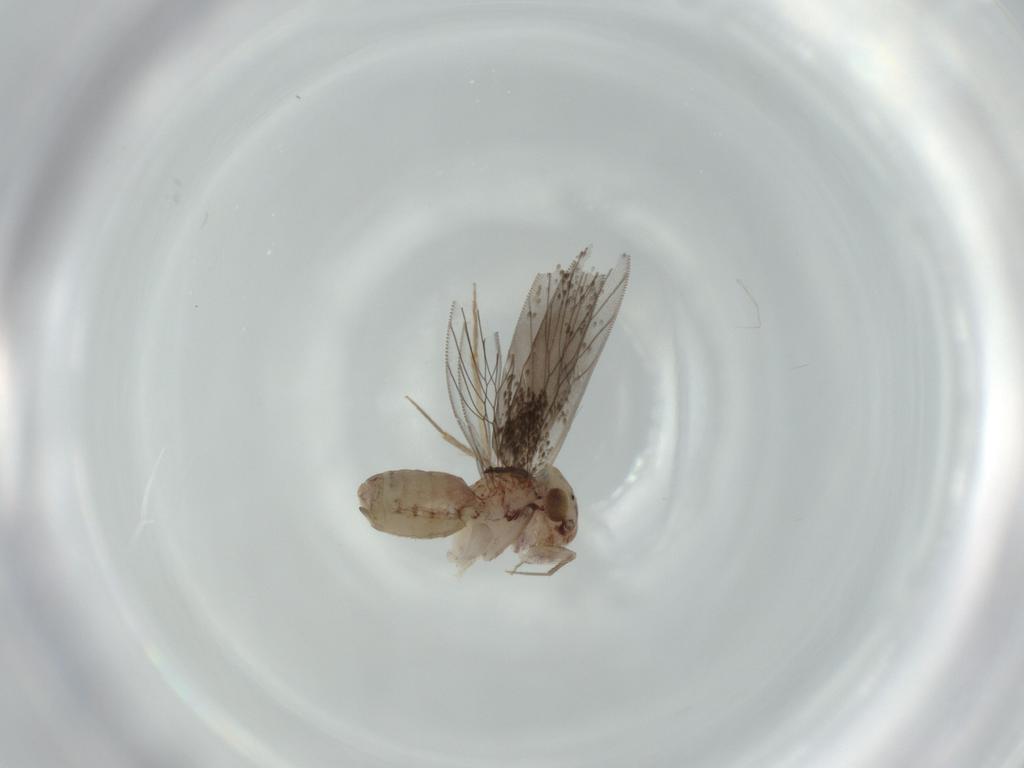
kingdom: Animalia
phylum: Arthropoda
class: Insecta
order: Psocodea
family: Lepidopsocidae
